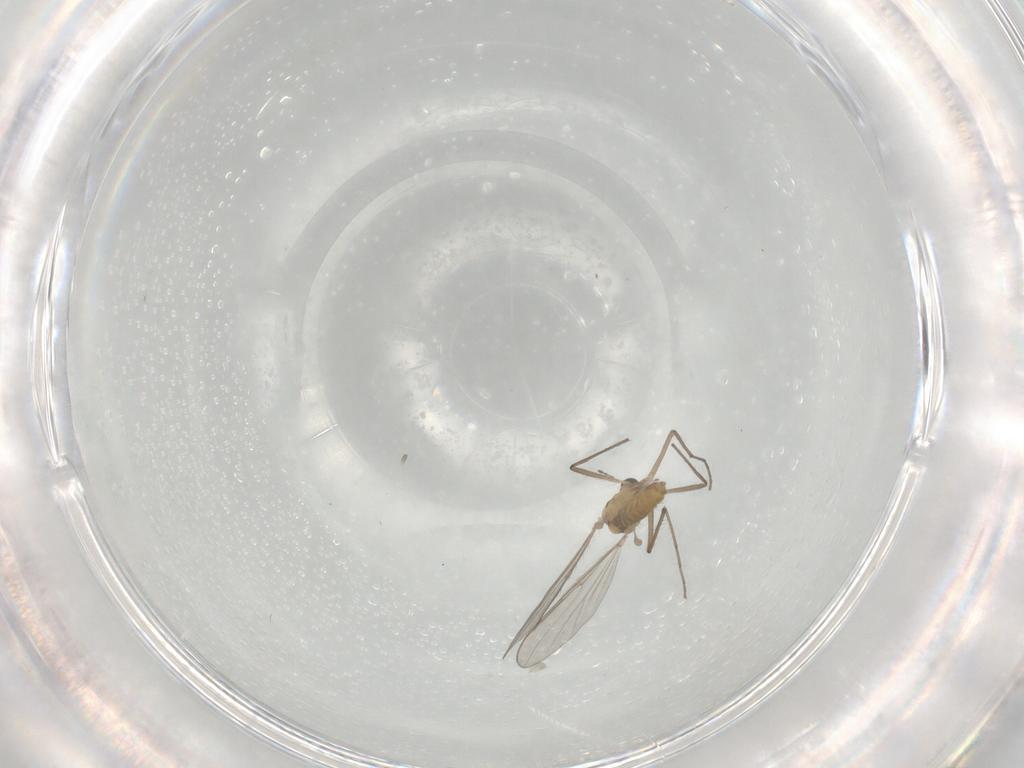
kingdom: Animalia
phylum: Arthropoda
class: Insecta
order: Diptera
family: Chironomidae
